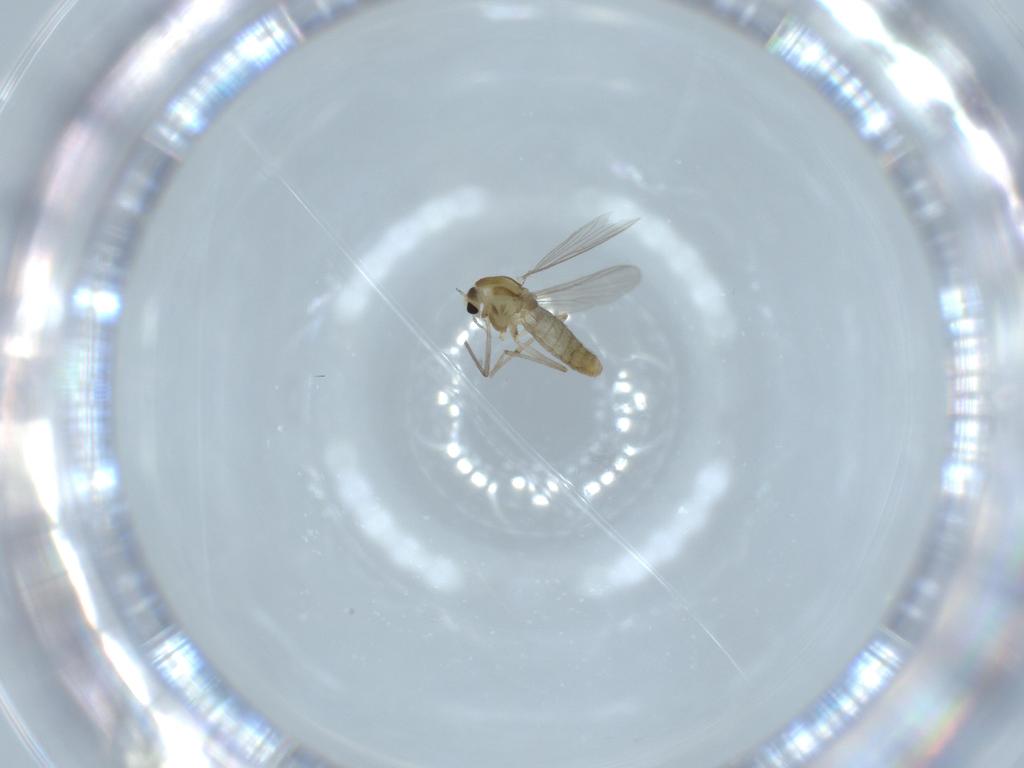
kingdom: Animalia
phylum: Arthropoda
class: Insecta
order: Diptera
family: Chironomidae
